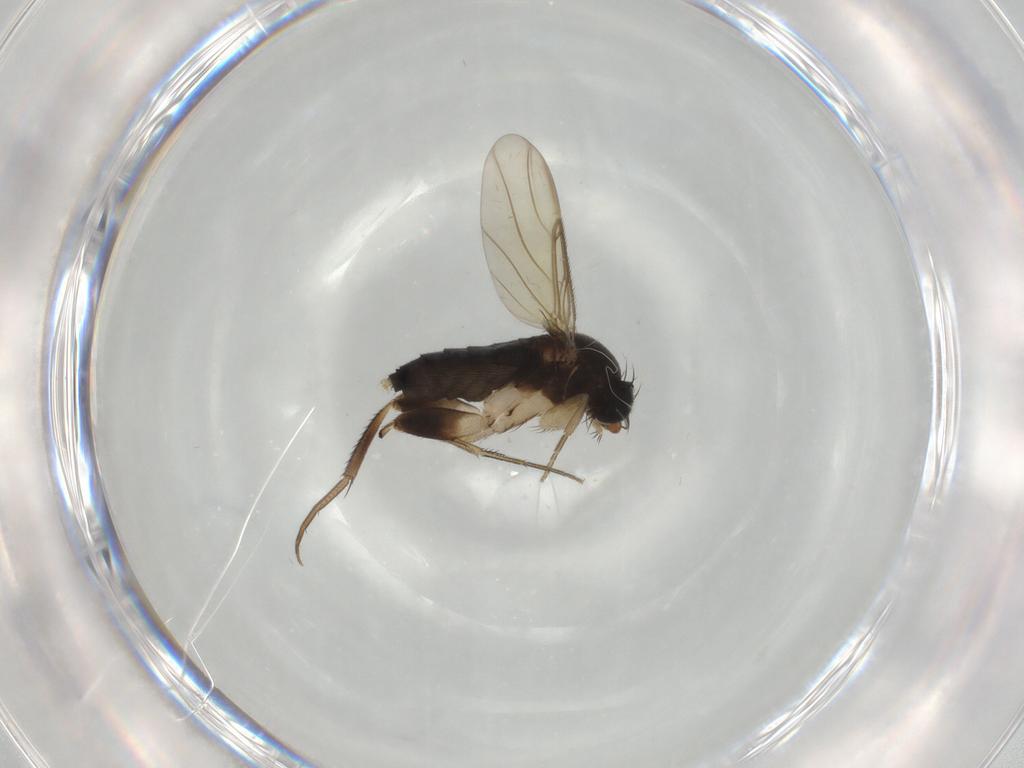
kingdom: Animalia
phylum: Arthropoda
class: Insecta
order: Diptera
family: Phoridae
